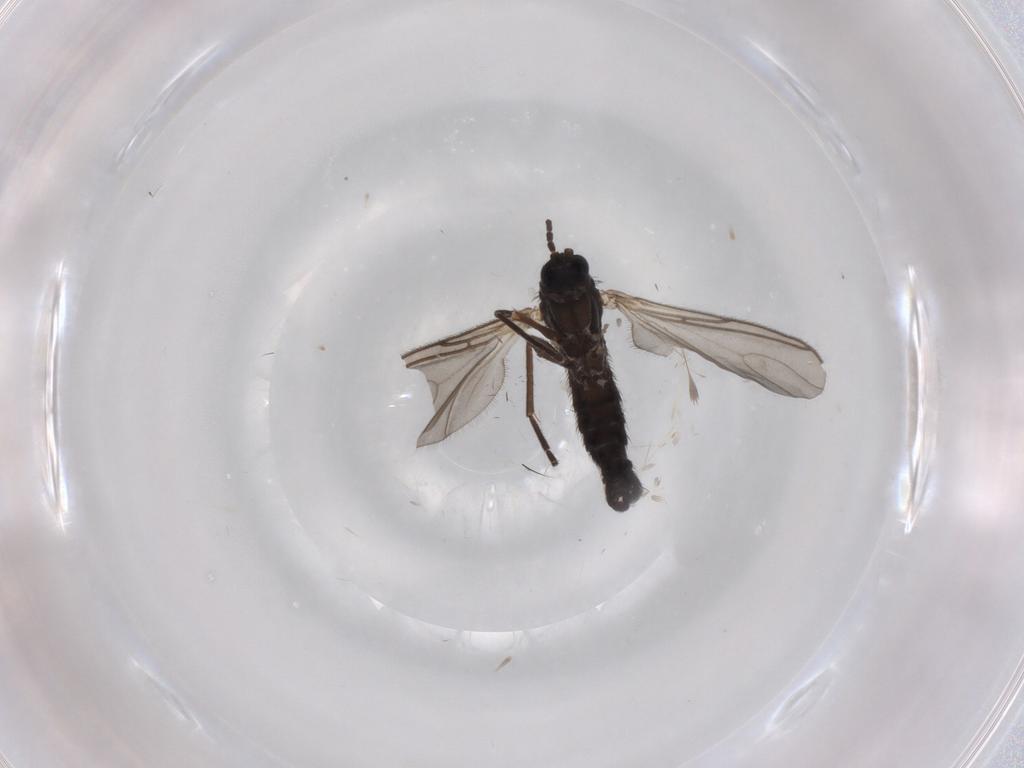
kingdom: Animalia
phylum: Arthropoda
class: Insecta
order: Diptera
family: Sciaridae
